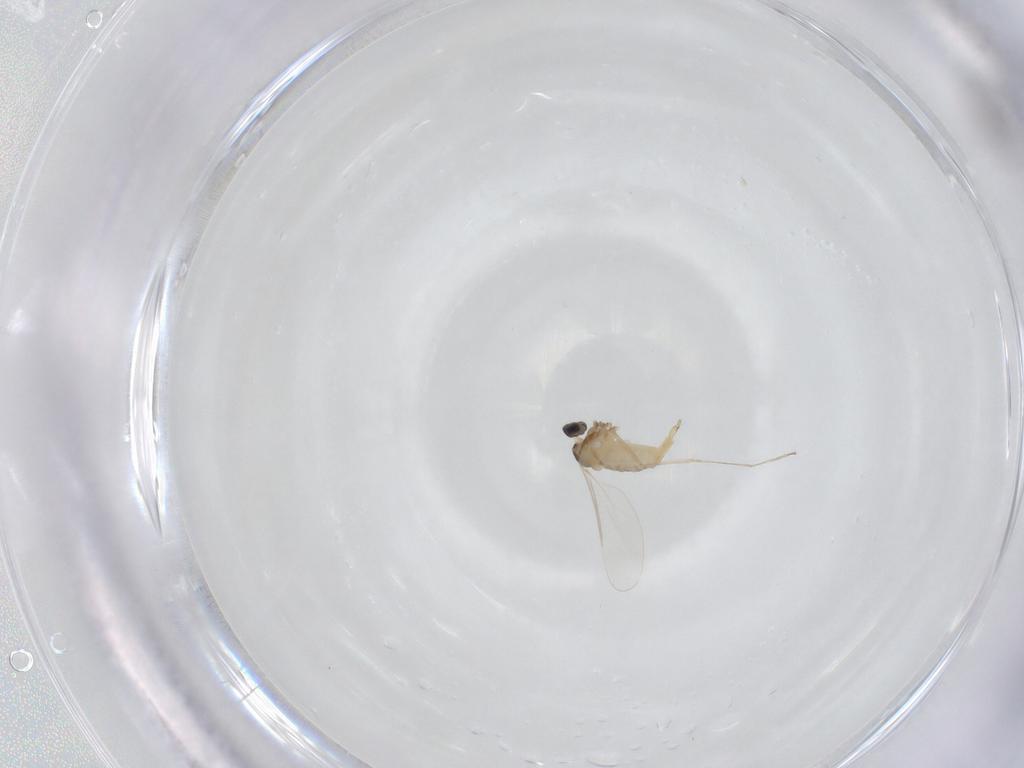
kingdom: Animalia
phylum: Arthropoda
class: Insecta
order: Diptera
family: Cecidomyiidae
